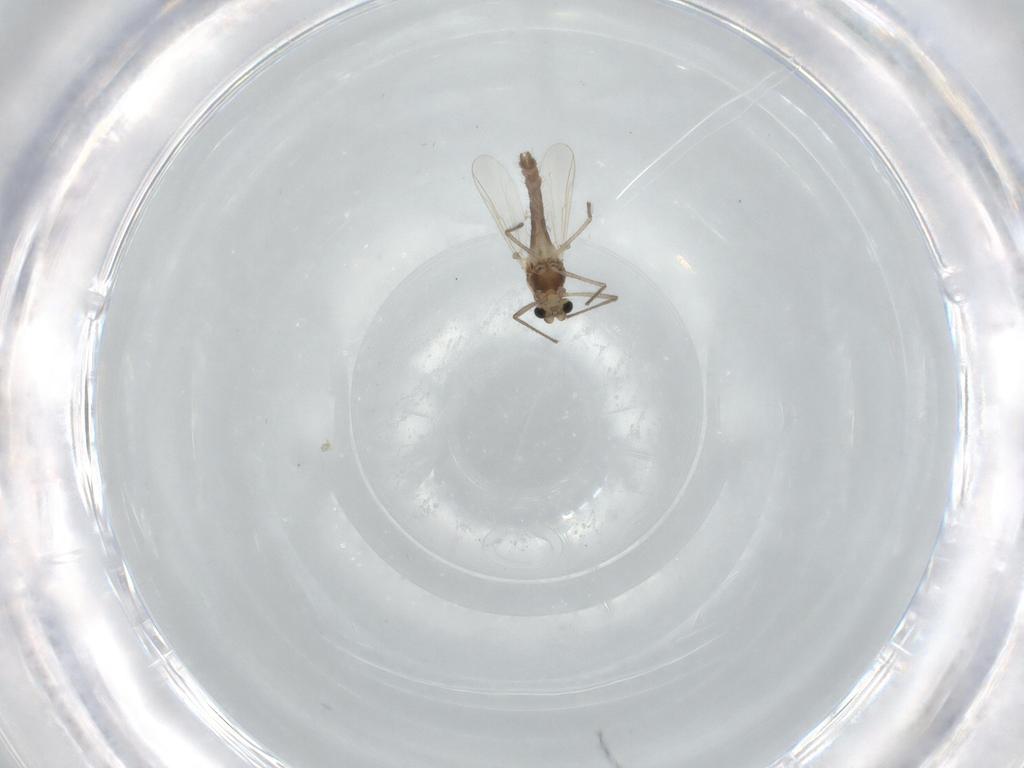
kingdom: Animalia
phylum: Arthropoda
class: Insecta
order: Diptera
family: Chironomidae
